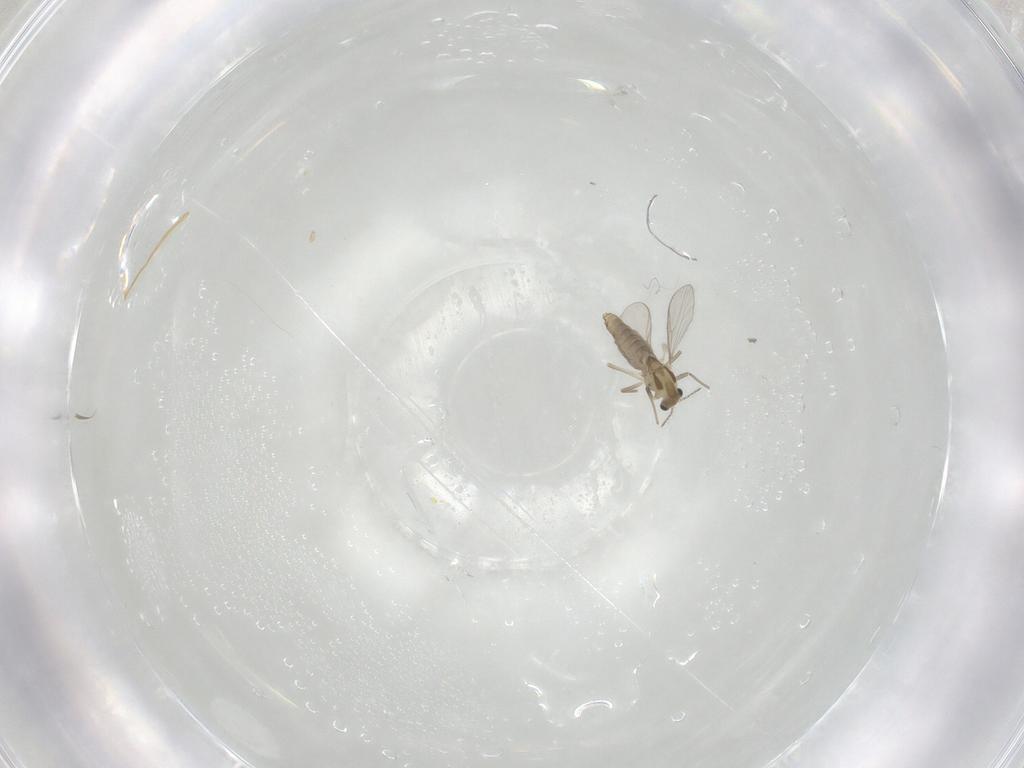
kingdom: Animalia
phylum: Arthropoda
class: Insecta
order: Diptera
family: Chironomidae
